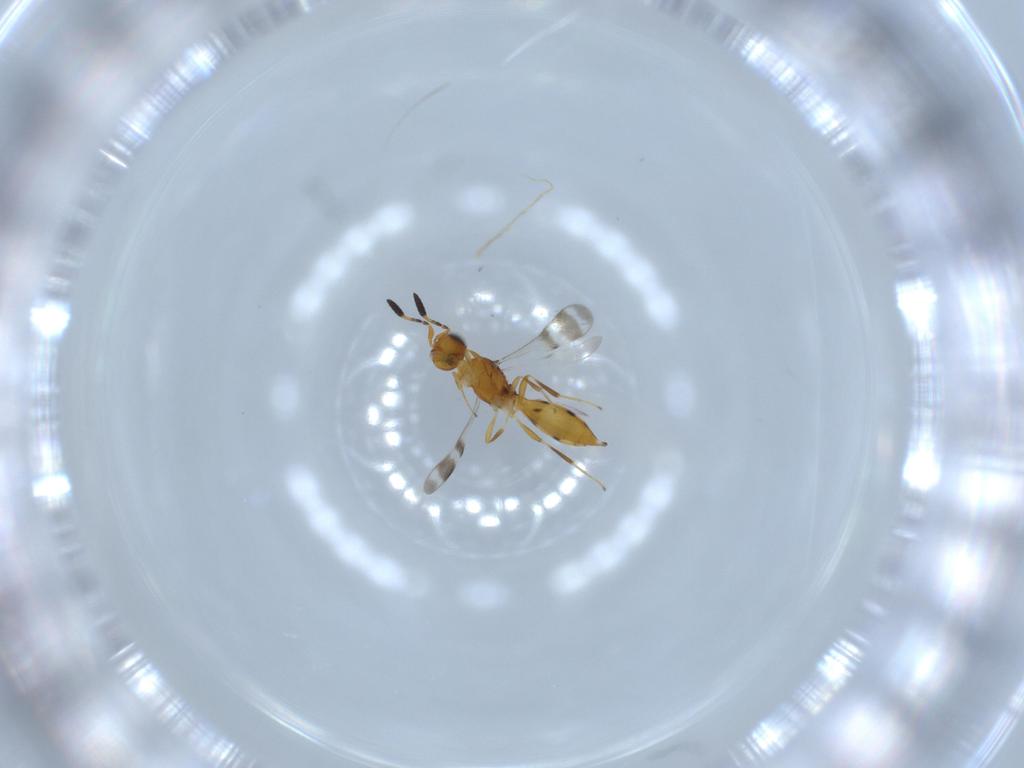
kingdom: Animalia
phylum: Arthropoda
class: Insecta
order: Hymenoptera
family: Scelionidae
